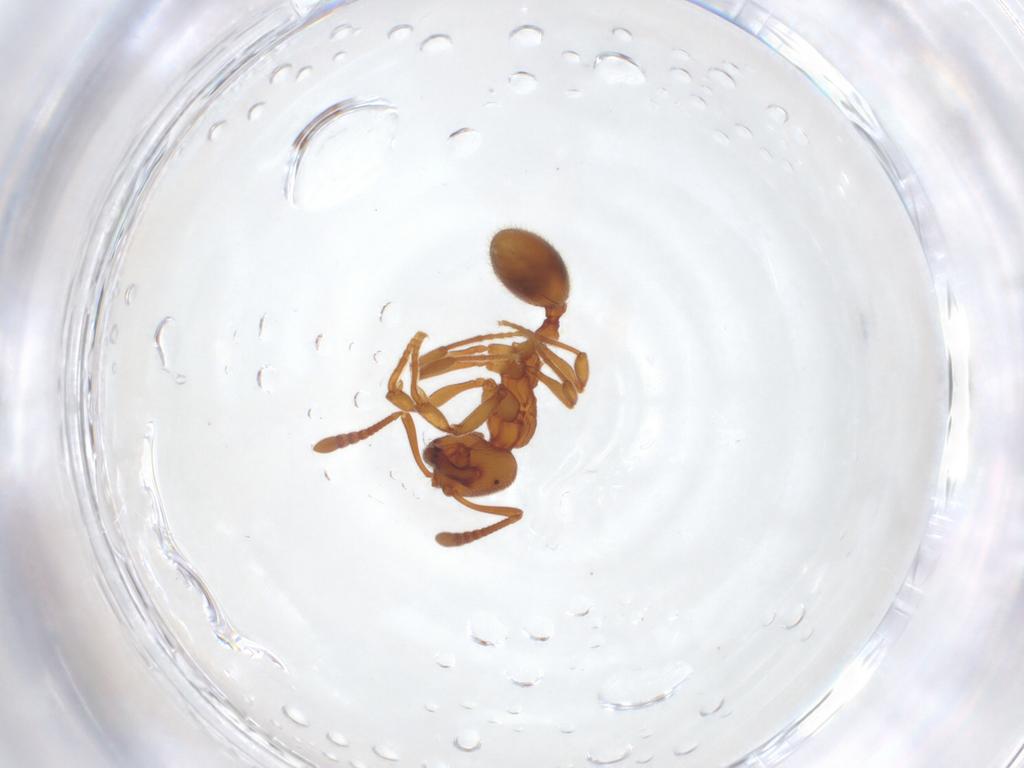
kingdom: Animalia
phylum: Arthropoda
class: Insecta
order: Hymenoptera
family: Formicidae
